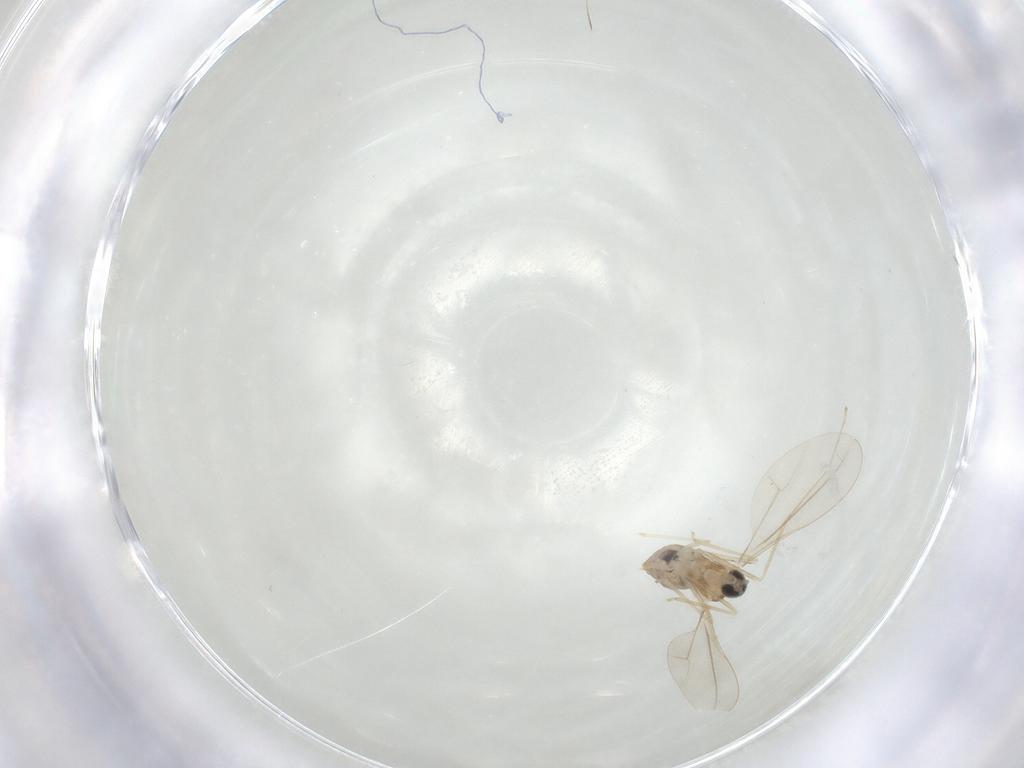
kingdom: Animalia
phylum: Arthropoda
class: Insecta
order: Diptera
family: Cecidomyiidae
